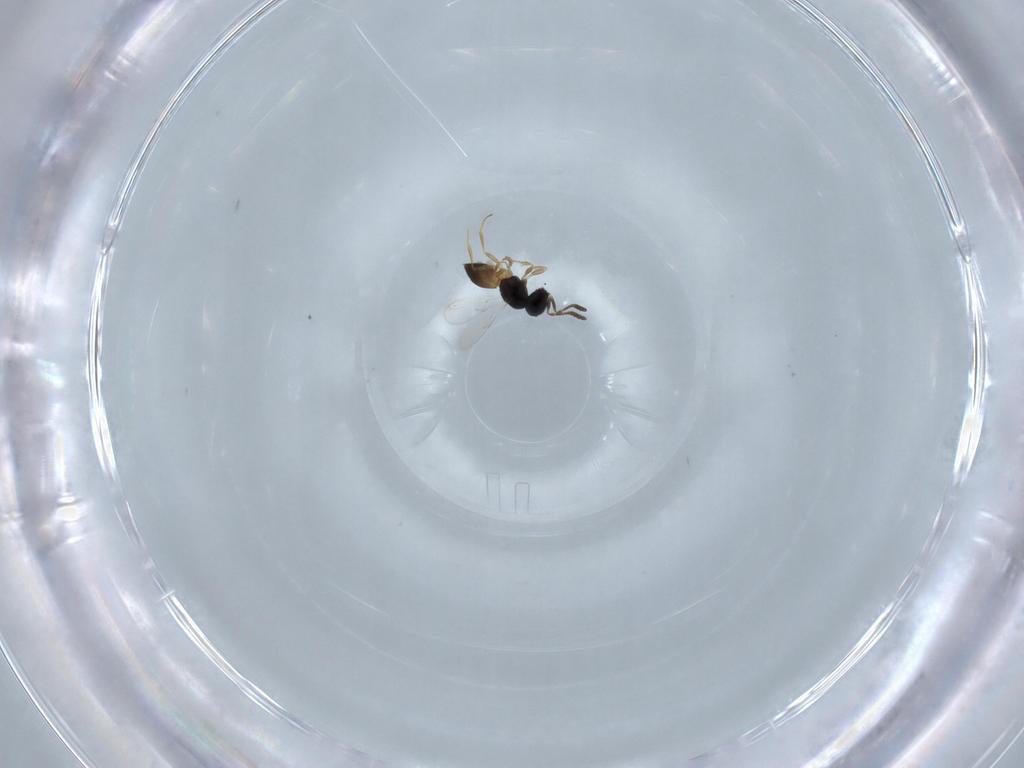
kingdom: Animalia
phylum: Arthropoda
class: Insecta
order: Hymenoptera
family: Scelionidae
